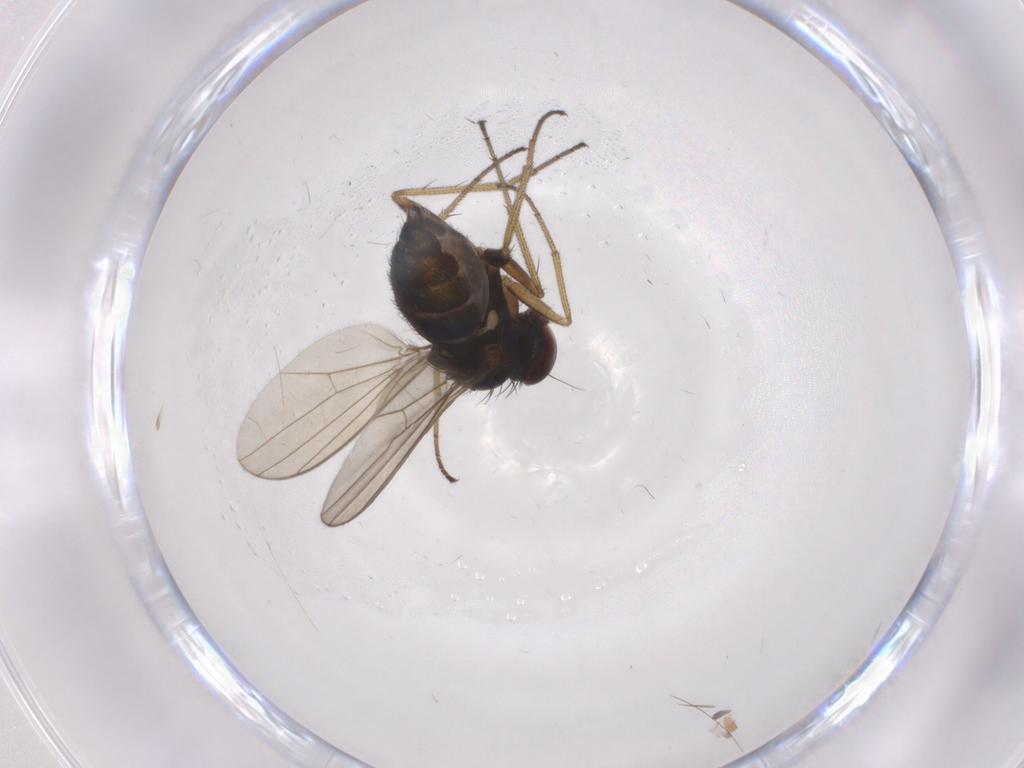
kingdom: Animalia
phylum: Arthropoda
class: Insecta
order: Diptera
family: Dolichopodidae
